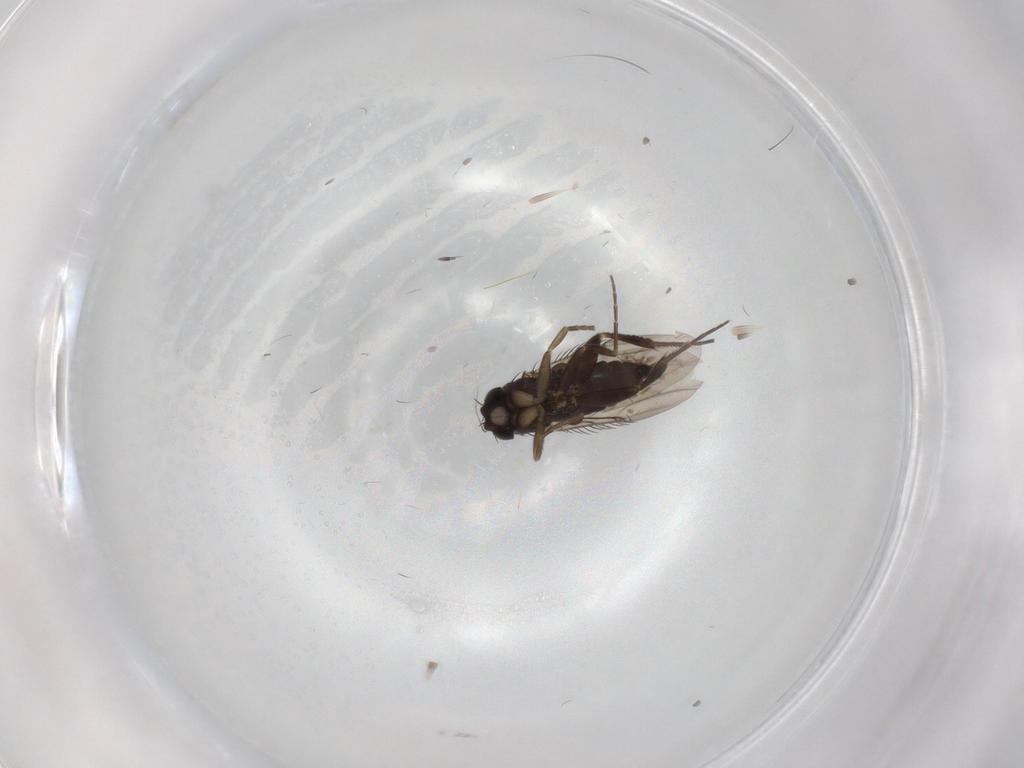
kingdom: Animalia
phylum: Arthropoda
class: Insecta
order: Diptera
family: Phoridae
